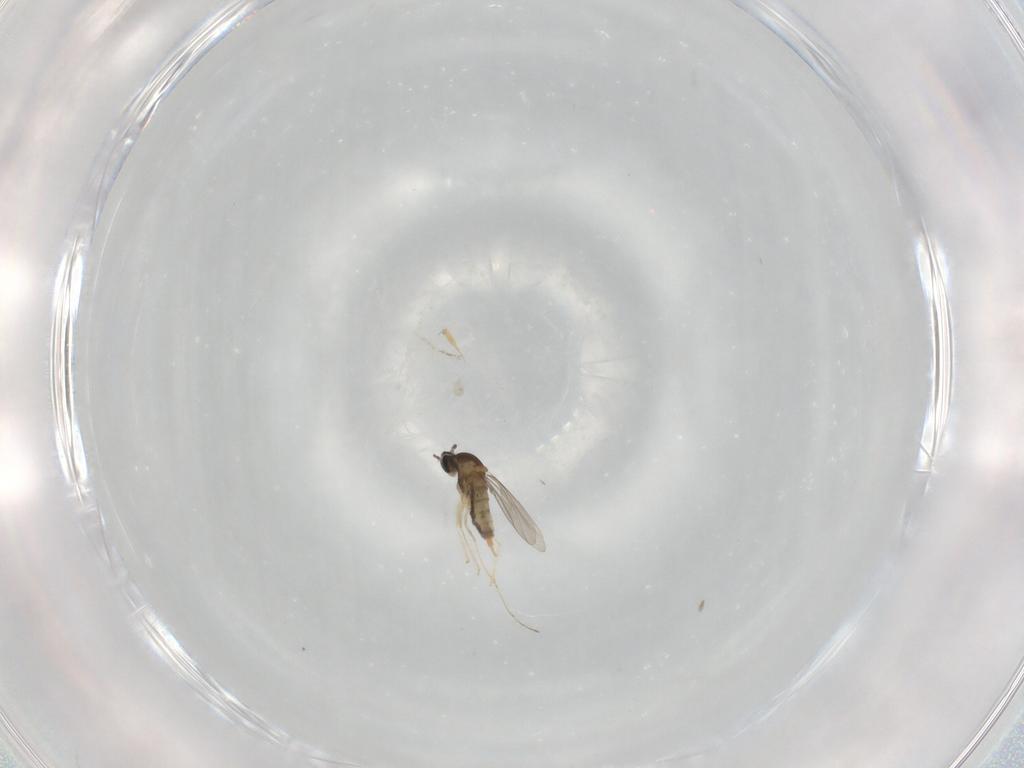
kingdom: Animalia
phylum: Arthropoda
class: Insecta
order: Diptera
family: Cecidomyiidae
